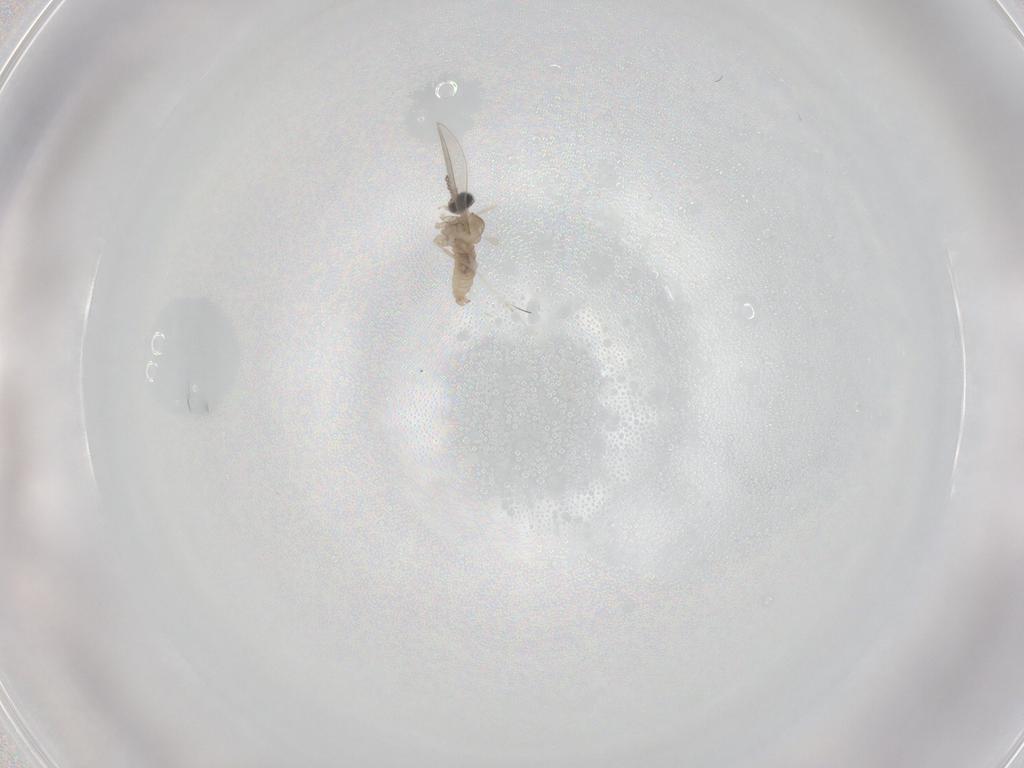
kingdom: Animalia
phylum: Arthropoda
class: Insecta
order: Diptera
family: Cecidomyiidae
